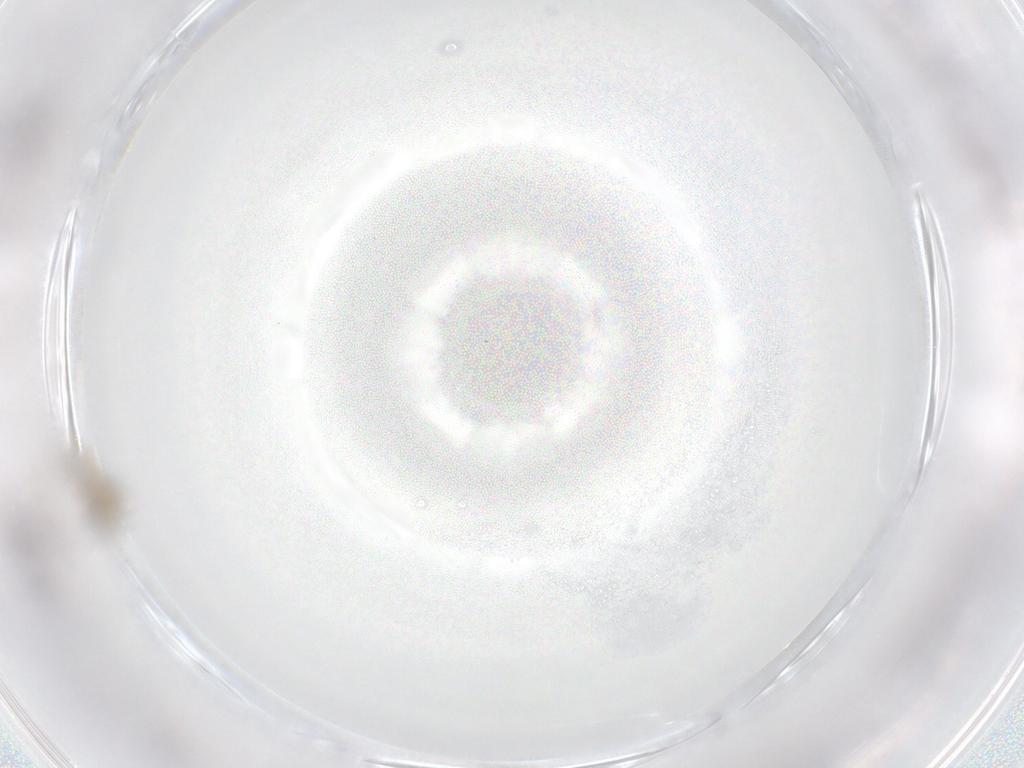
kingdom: Animalia
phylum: Arthropoda
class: Insecta
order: Diptera
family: Cecidomyiidae
